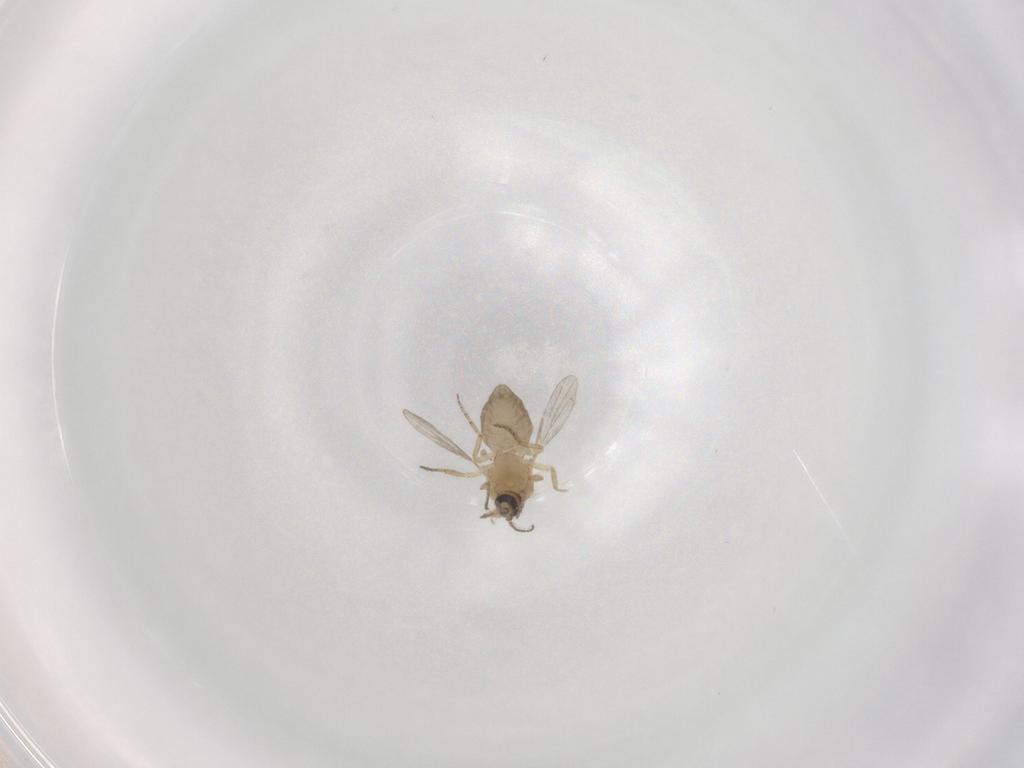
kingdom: Animalia
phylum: Arthropoda
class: Insecta
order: Diptera
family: Ceratopogonidae
